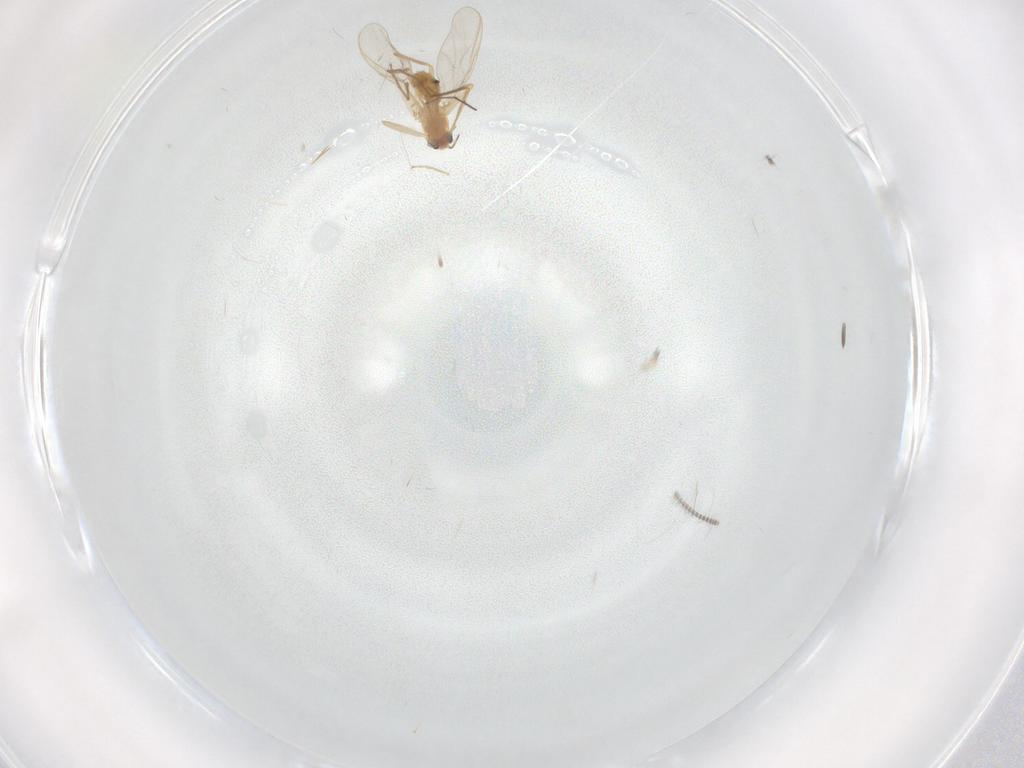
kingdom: Animalia
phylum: Arthropoda
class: Insecta
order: Diptera
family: Chironomidae
